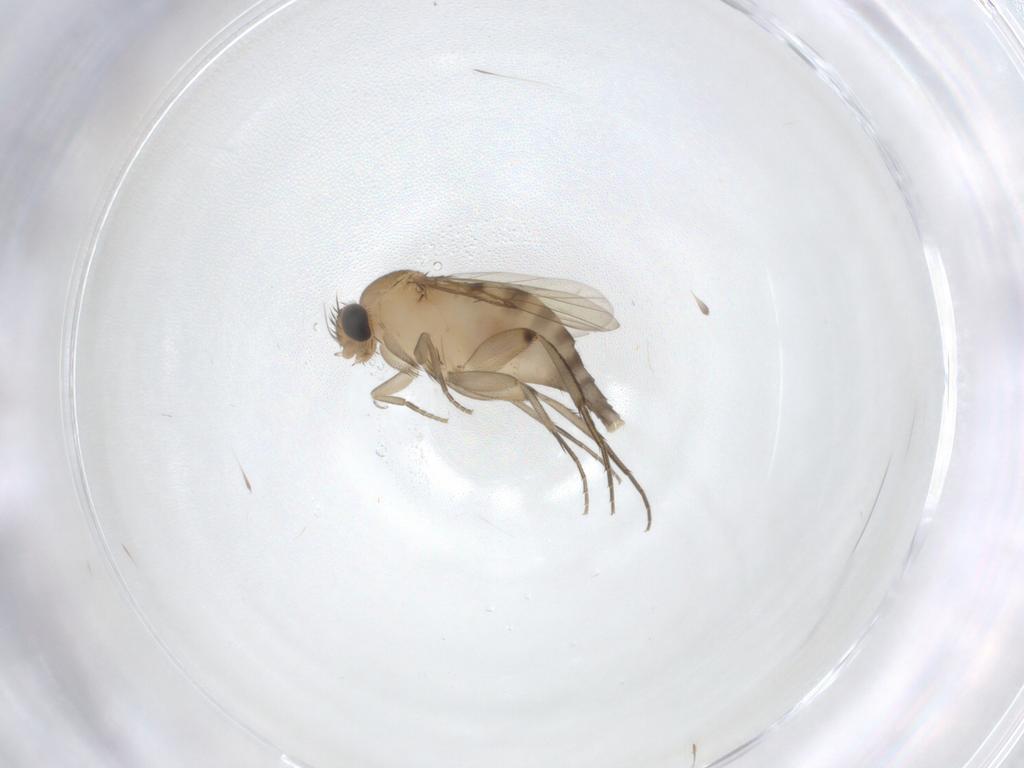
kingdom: Animalia
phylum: Arthropoda
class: Insecta
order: Diptera
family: Phoridae
